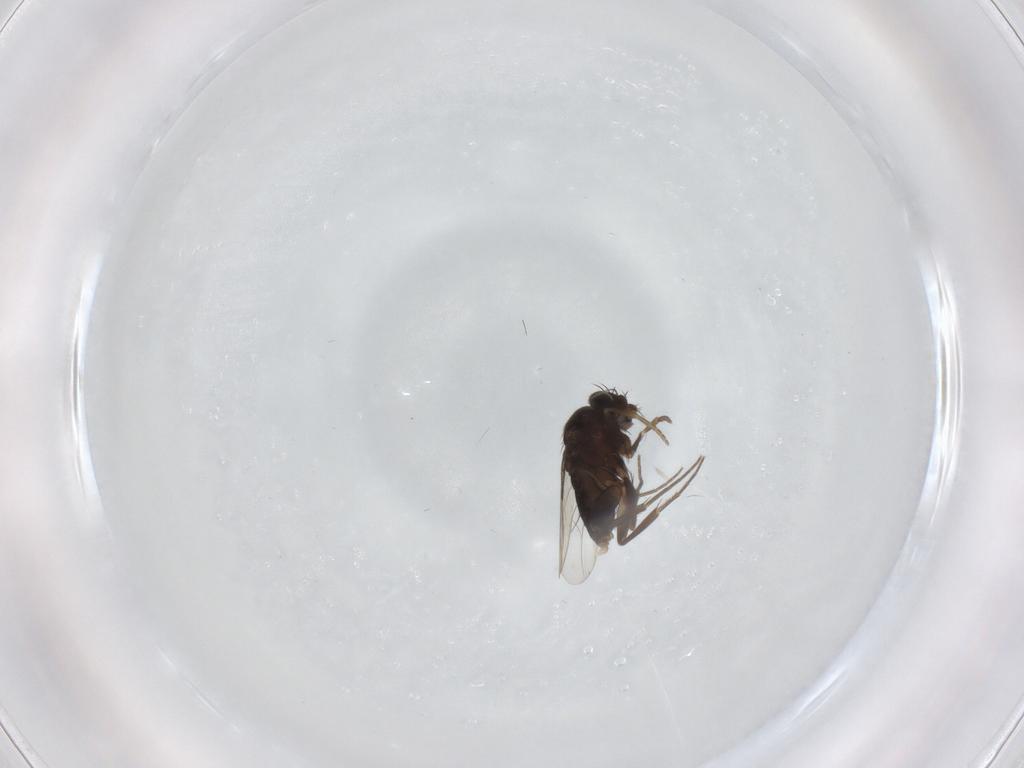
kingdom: Animalia
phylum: Arthropoda
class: Insecta
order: Diptera
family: Phoridae
